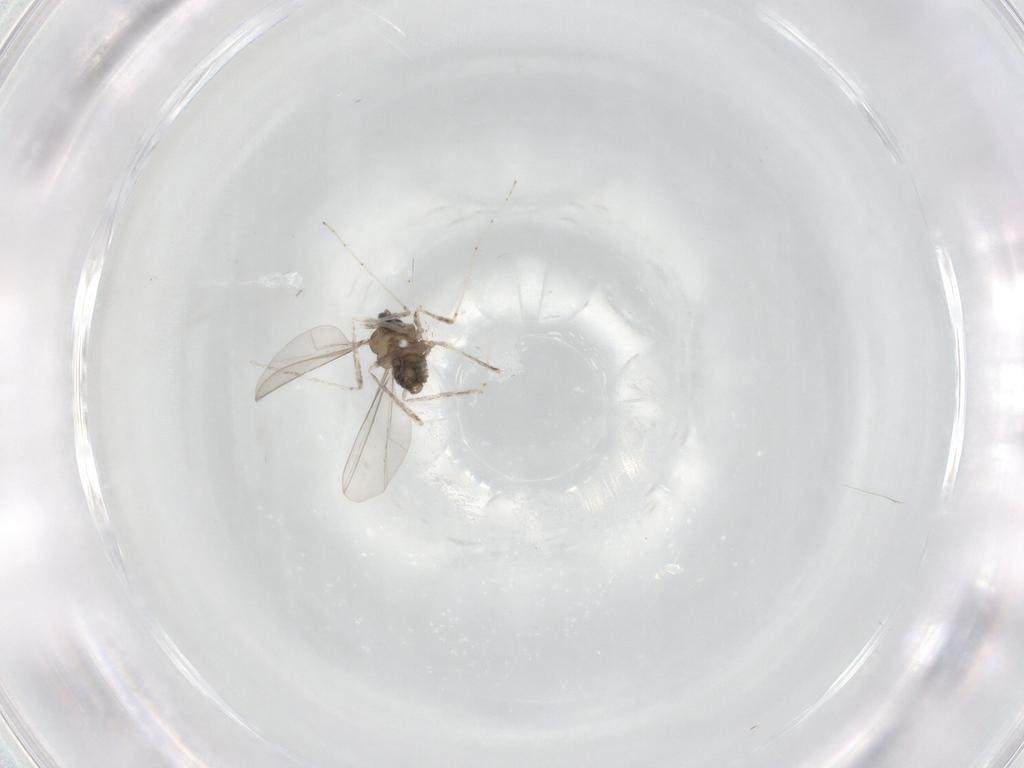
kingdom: Animalia
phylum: Arthropoda
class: Insecta
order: Diptera
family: Cecidomyiidae
